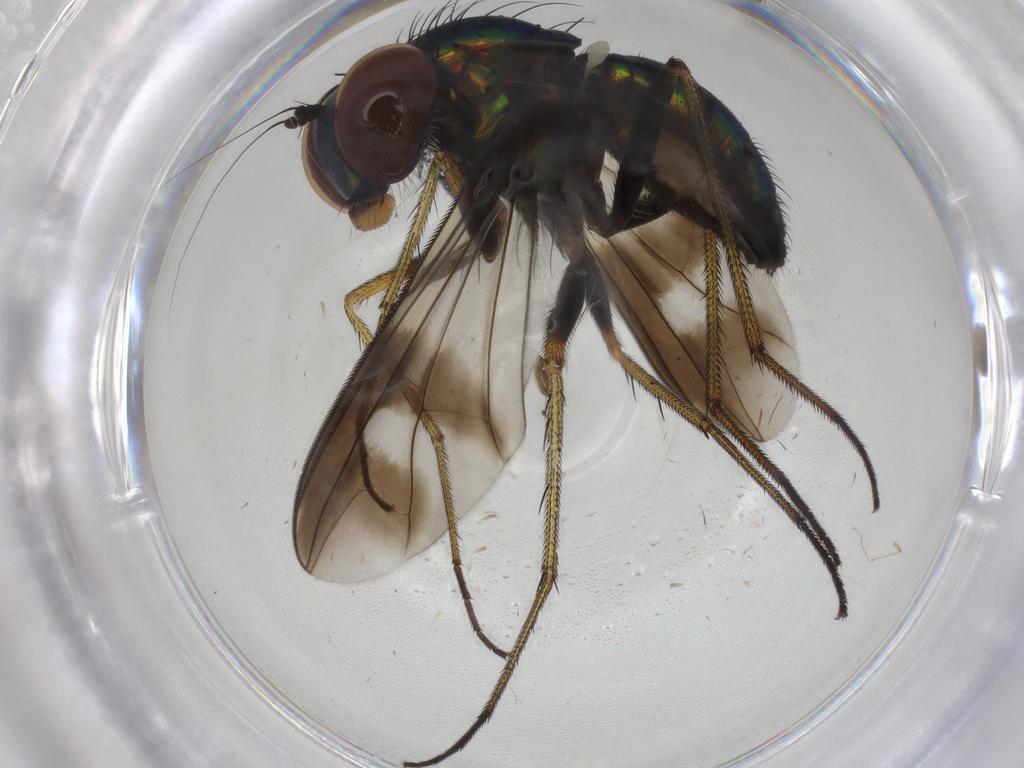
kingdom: Animalia
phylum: Arthropoda
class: Insecta
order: Diptera
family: Dolichopodidae
